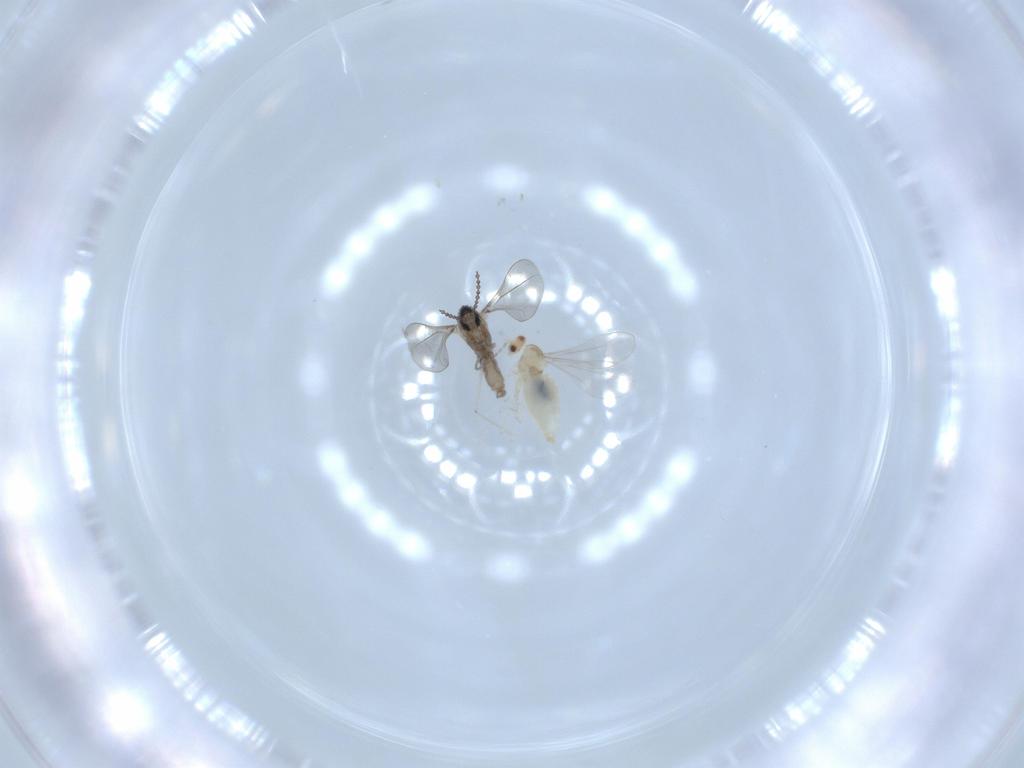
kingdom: Animalia
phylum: Arthropoda
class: Insecta
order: Diptera
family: Cecidomyiidae
